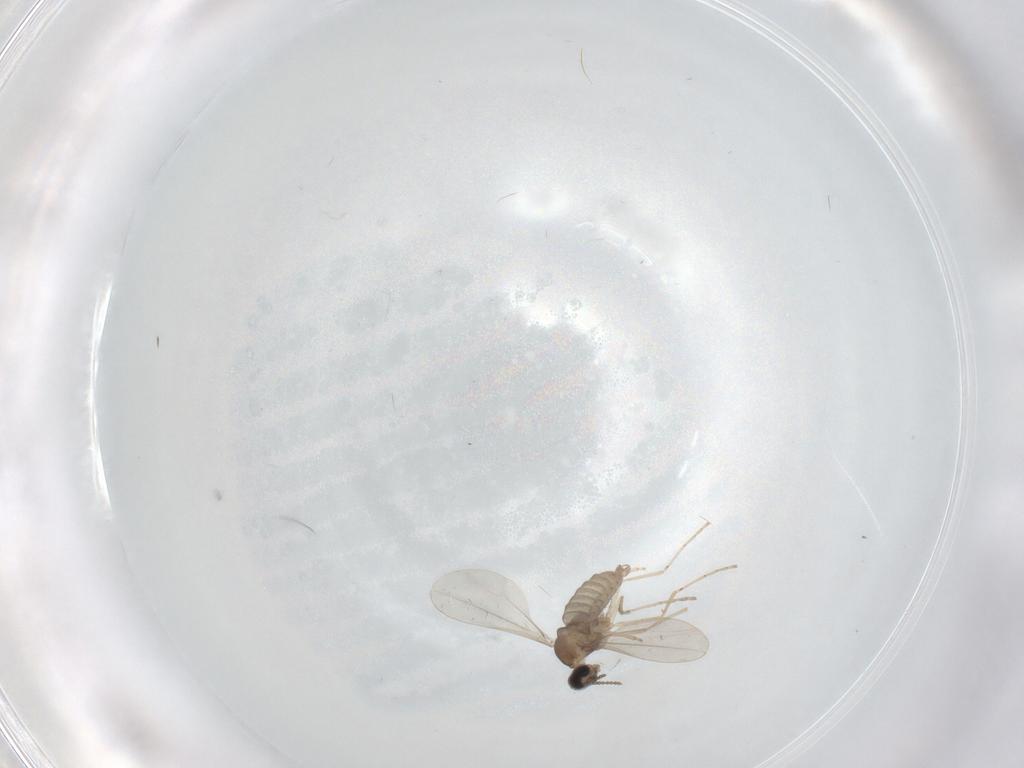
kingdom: Animalia
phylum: Arthropoda
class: Insecta
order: Diptera
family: Cecidomyiidae
